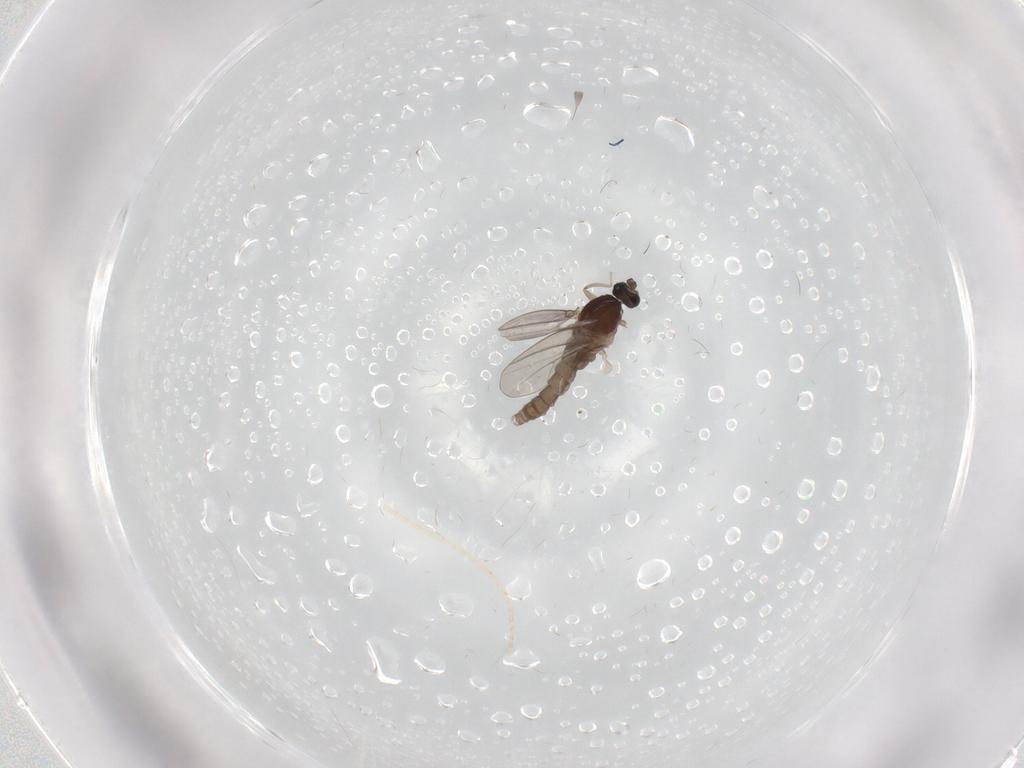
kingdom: Animalia
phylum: Arthropoda
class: Insecta
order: Diptera
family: Cecidomyiidae
